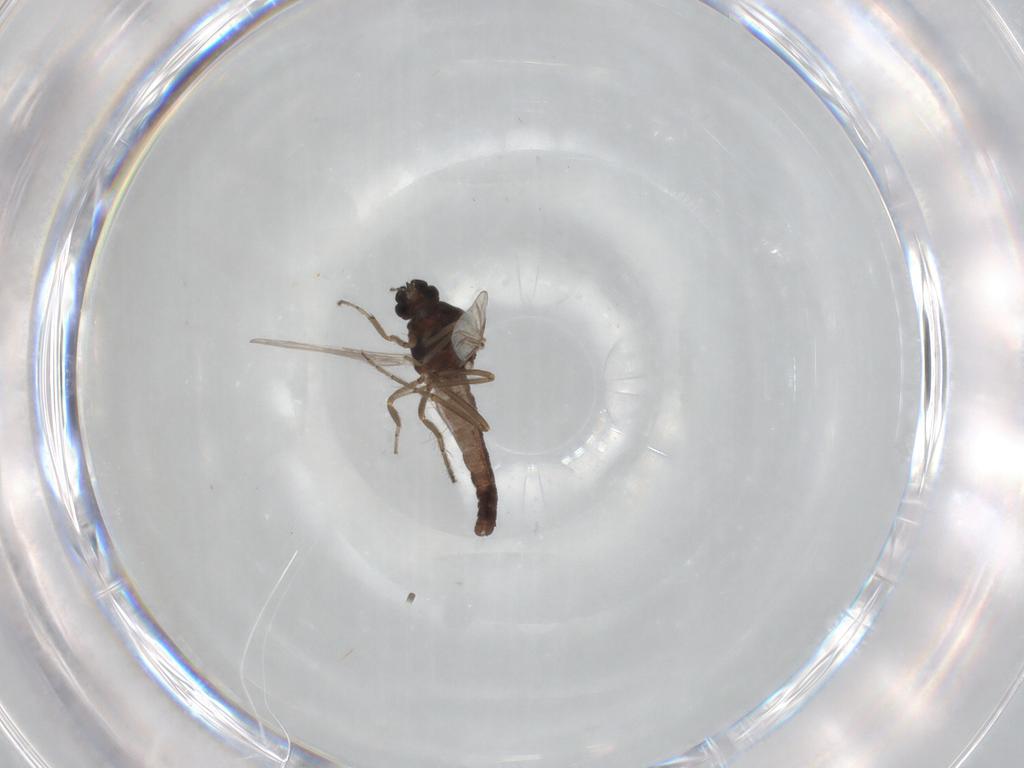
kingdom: Animalia
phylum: Arthropoda
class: Insecta
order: Diptera
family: Ceratopogonidae
